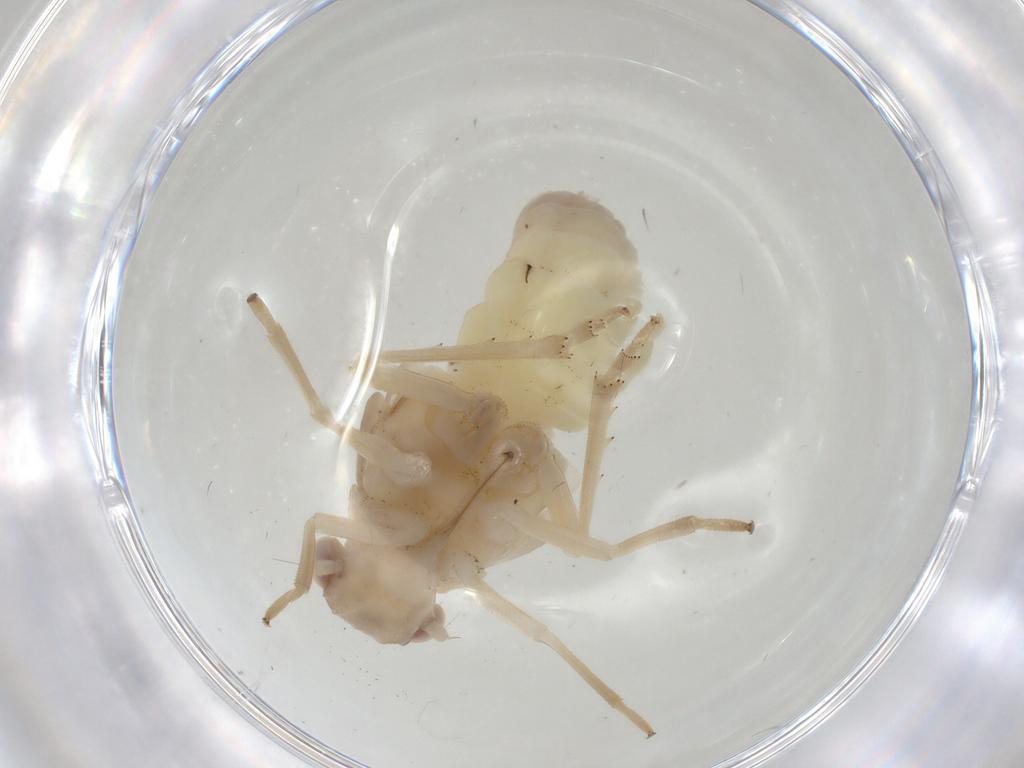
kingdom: Animalia
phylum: Arthropoda
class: Insecta
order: Hemiptera
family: Tropiduchidae
